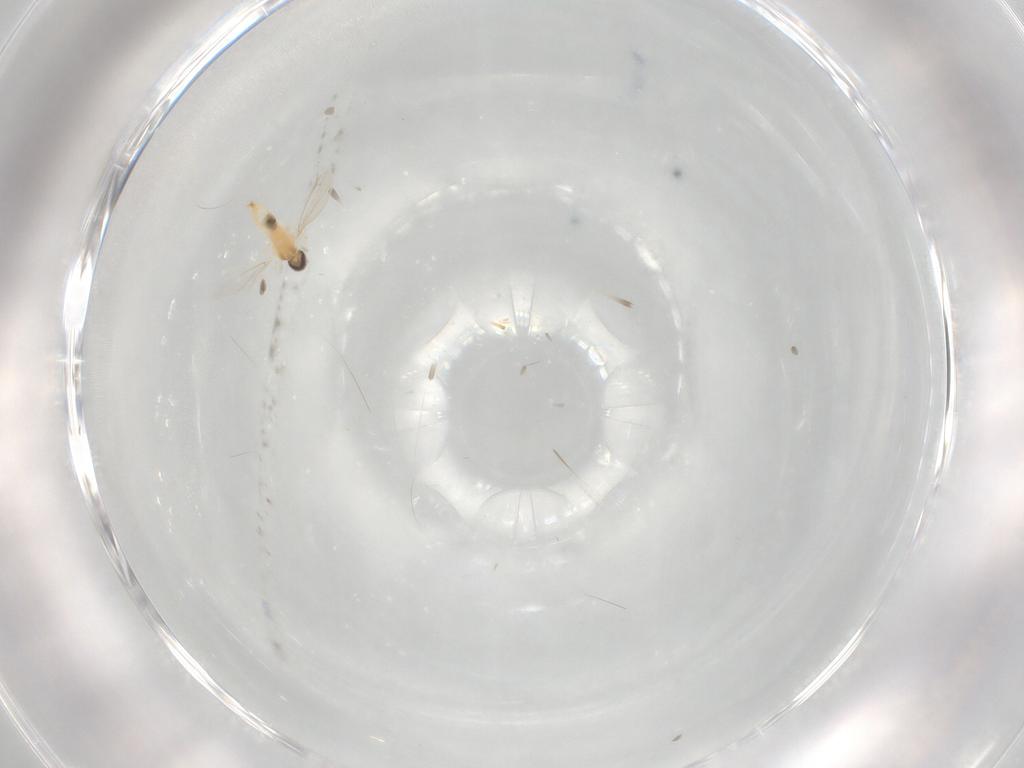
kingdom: Animalia
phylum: Arthropoda
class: Insecta
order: Diptera
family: Cecidomyiidae
